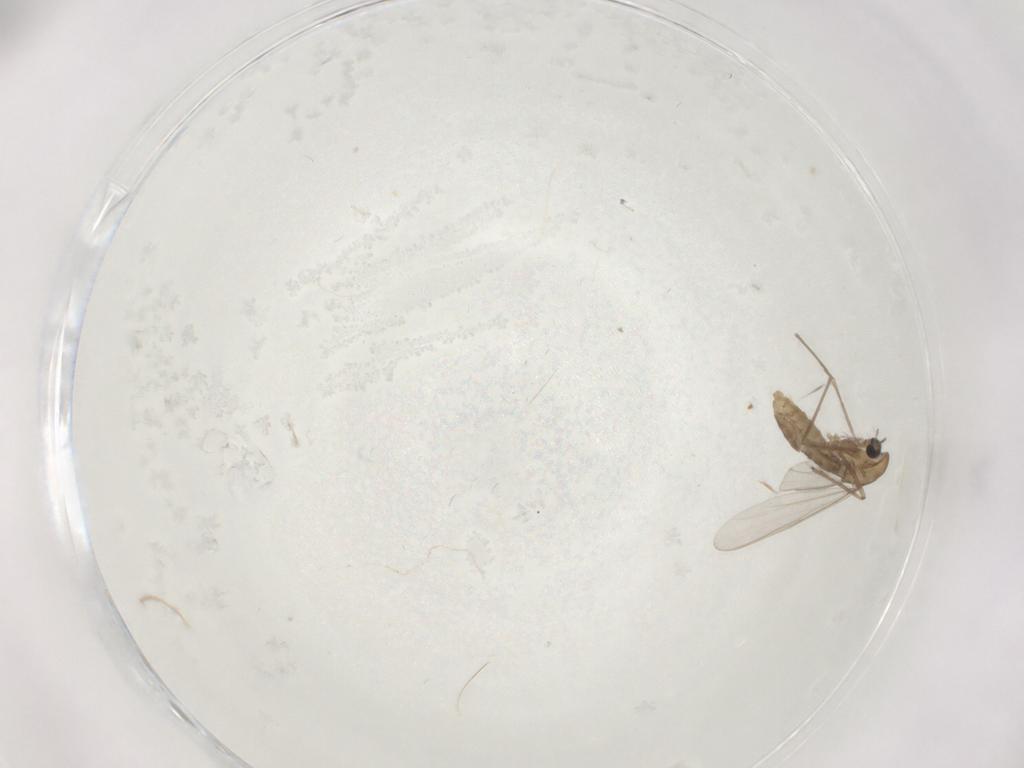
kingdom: Animalia
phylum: Arthropoda
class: Insecta
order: Diptera
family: Chironomidae
